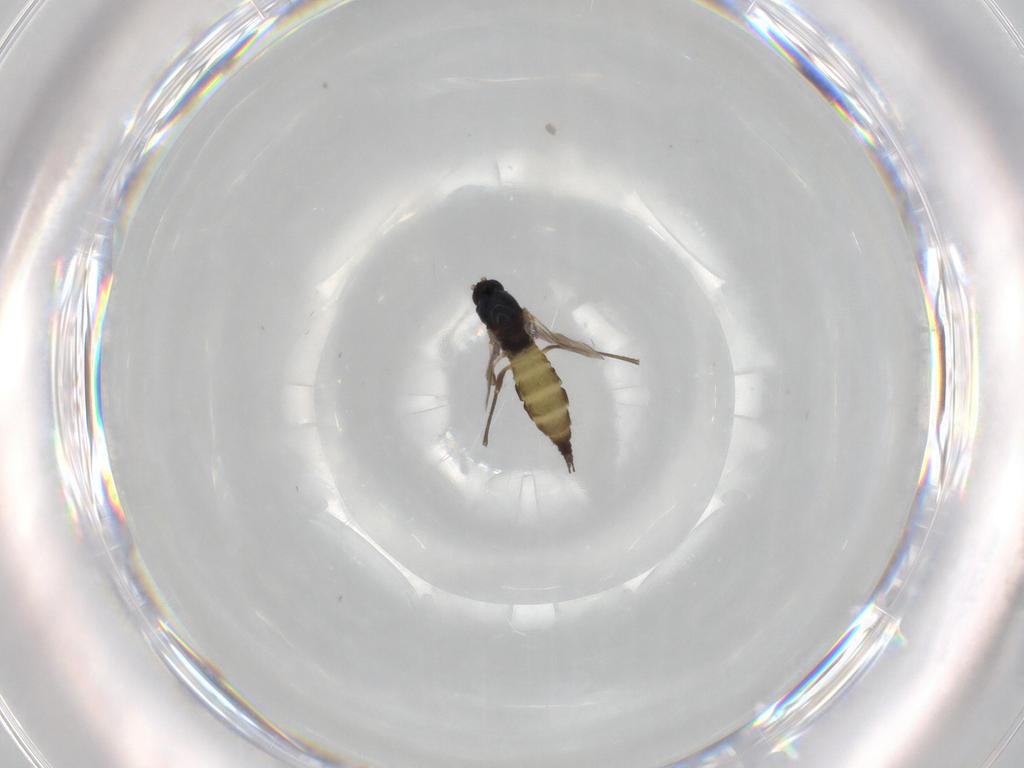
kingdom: Animalia
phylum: Arthropoda
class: Insecta
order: Diptera
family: Sciaridae
